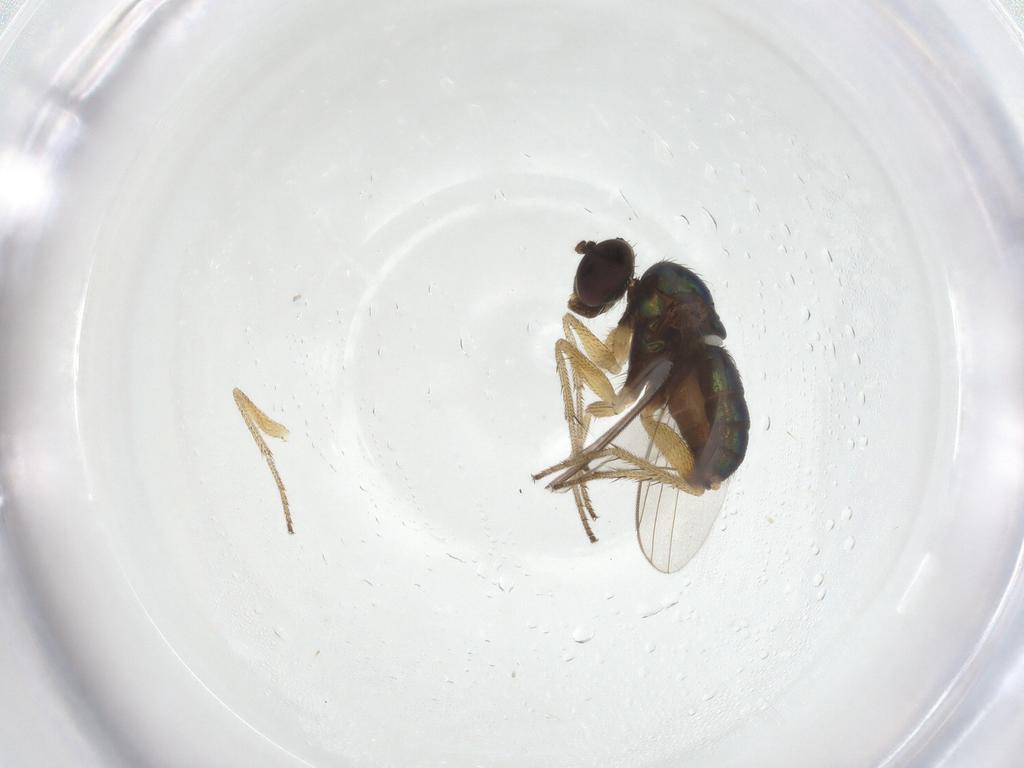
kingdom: Animalia
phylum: Arthropoda
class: Insecta
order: Diptera
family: Dolichopodidae
